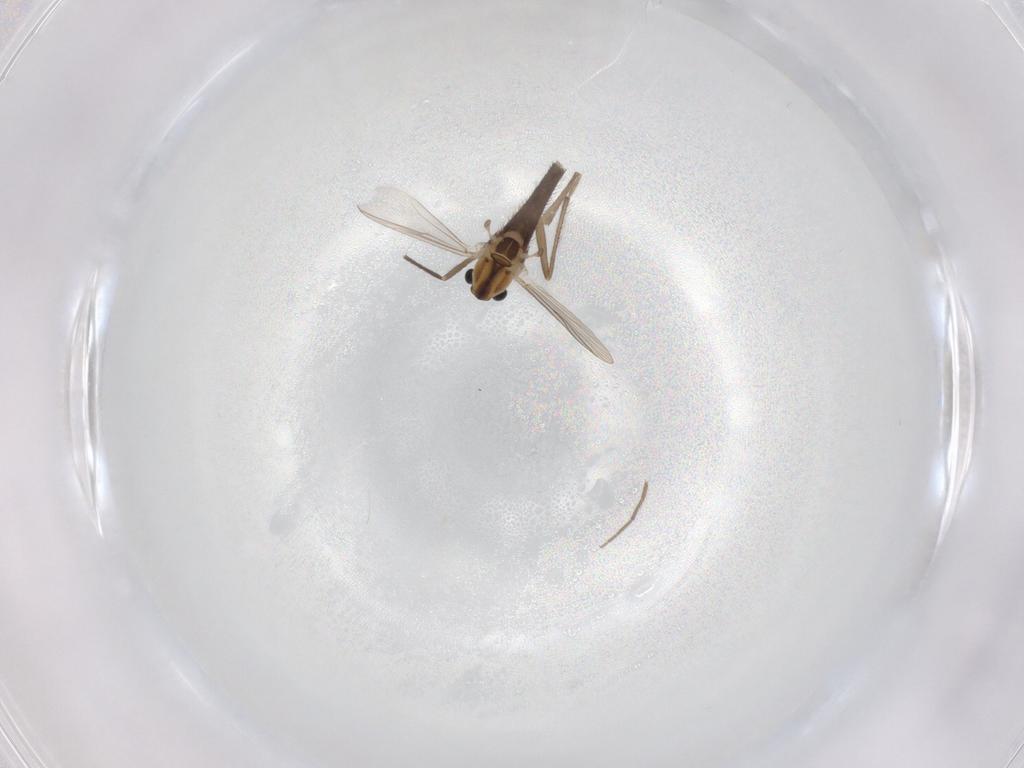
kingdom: Animalia
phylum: Arthropoda
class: Insecta
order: Diptera
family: Chironomidae
